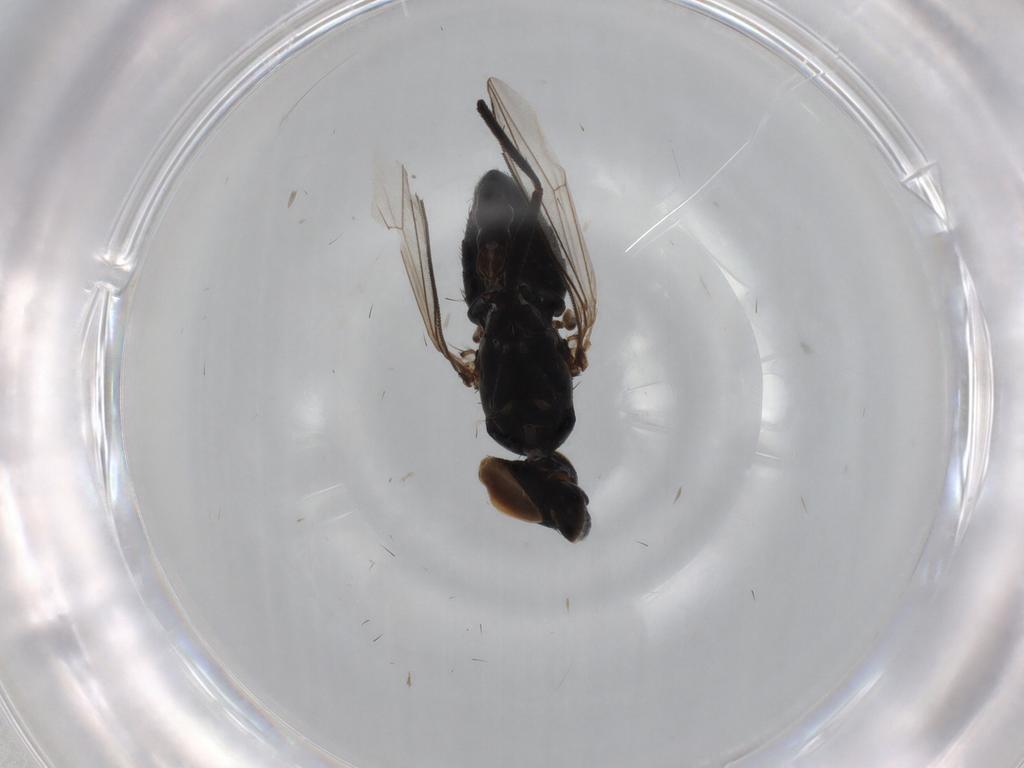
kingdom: Animalia
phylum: Arthropoda
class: Insecta
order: Diptera
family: Dolichopodidae
